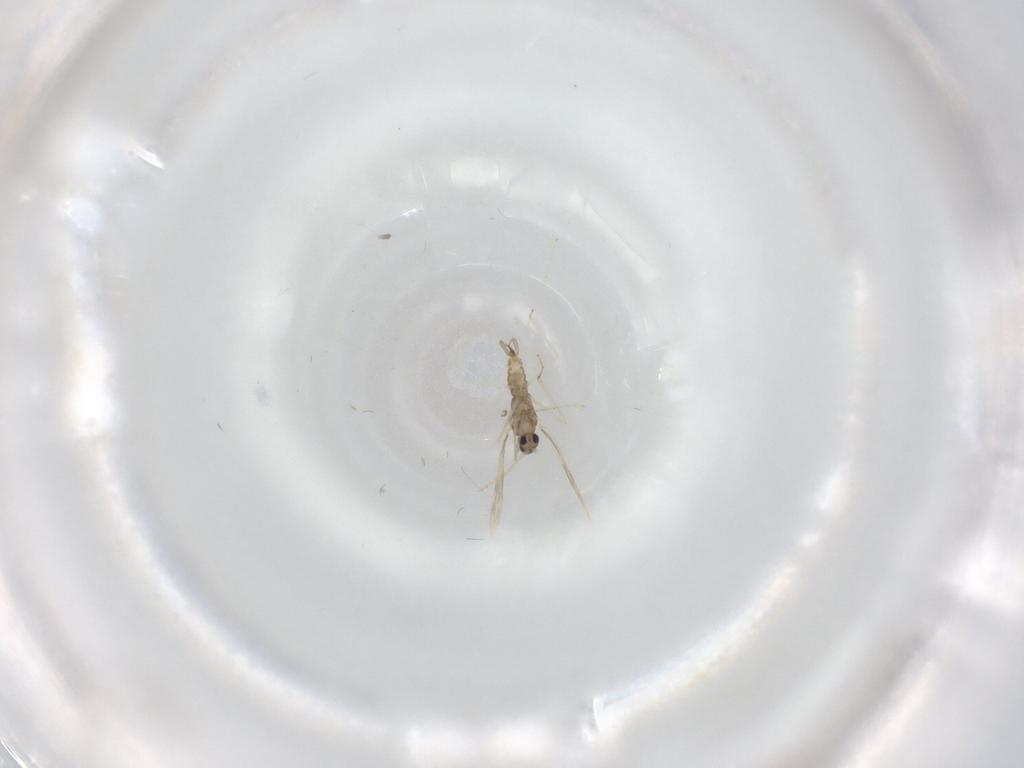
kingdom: Animalia
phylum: Arthropoda
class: Insecta
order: Diptera
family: Cecidomyiidae
